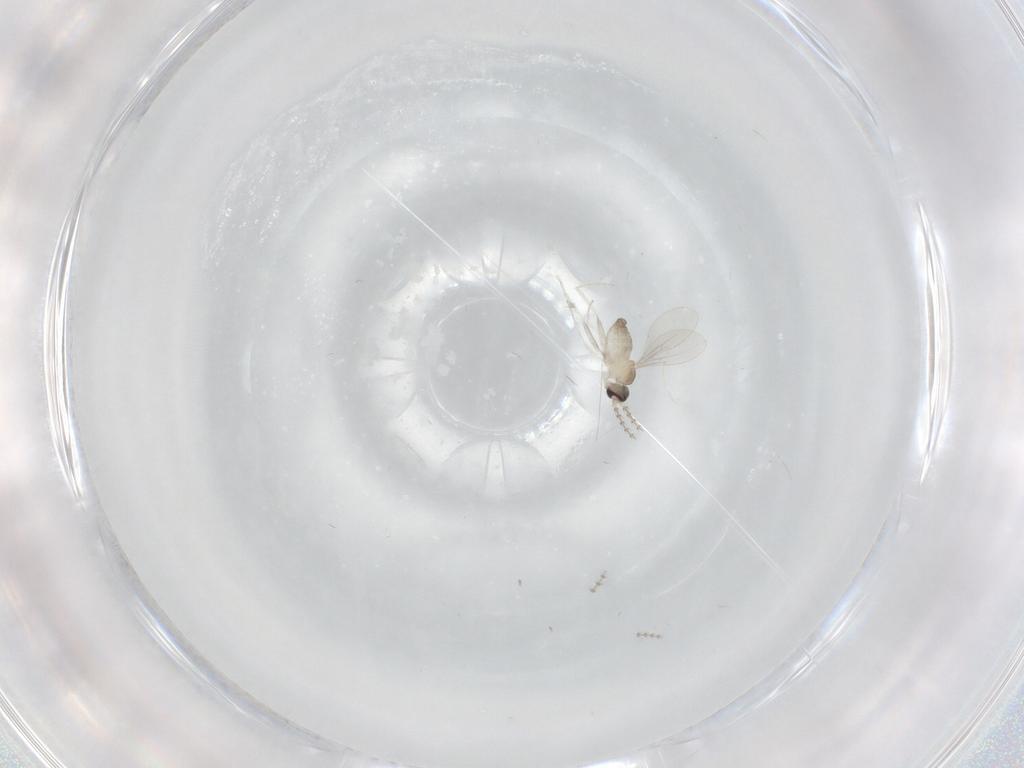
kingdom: Animalia
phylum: Arthropoda
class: Insecta
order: Diptera
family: Cecidomyiidae
